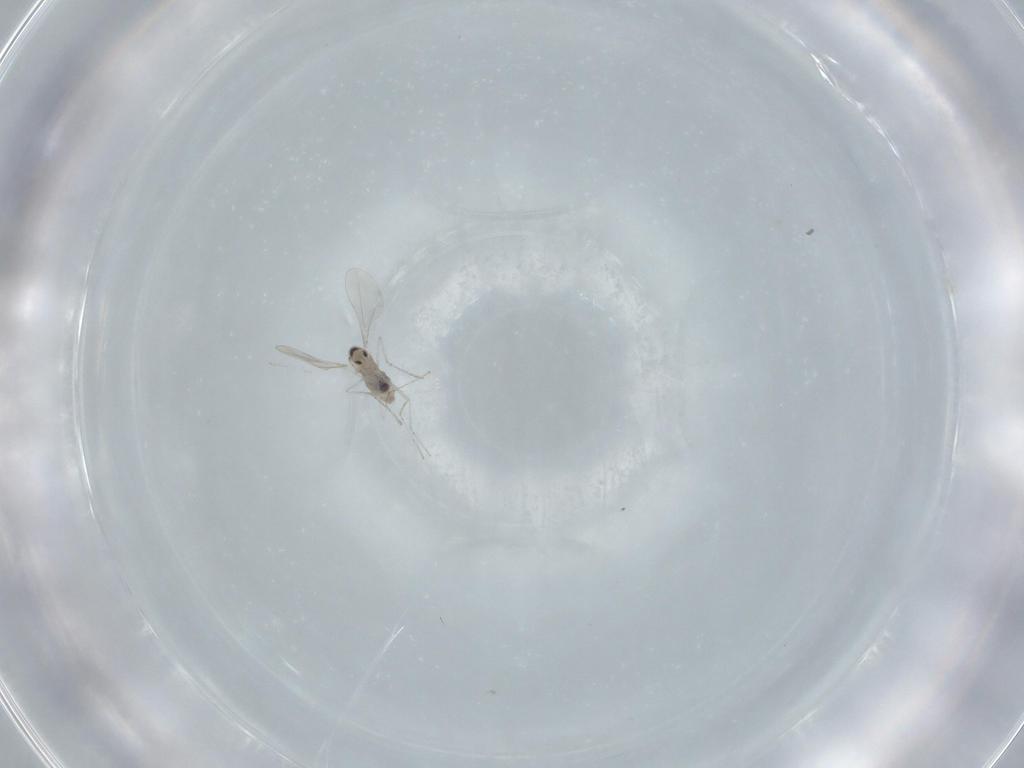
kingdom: Animalia
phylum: Arthropoda
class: Insecta
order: Diptera
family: Cecidomyiidae
